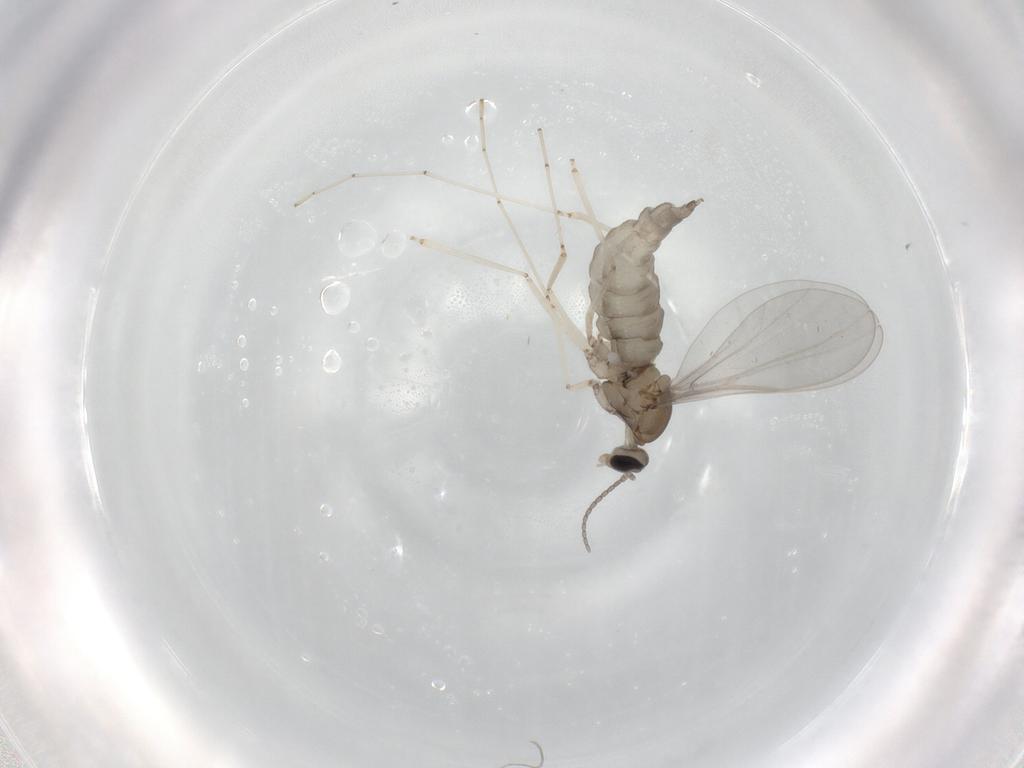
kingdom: Animalia
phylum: Arthropoda
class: Insecta
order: Diptera
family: Cecidomyiidae
